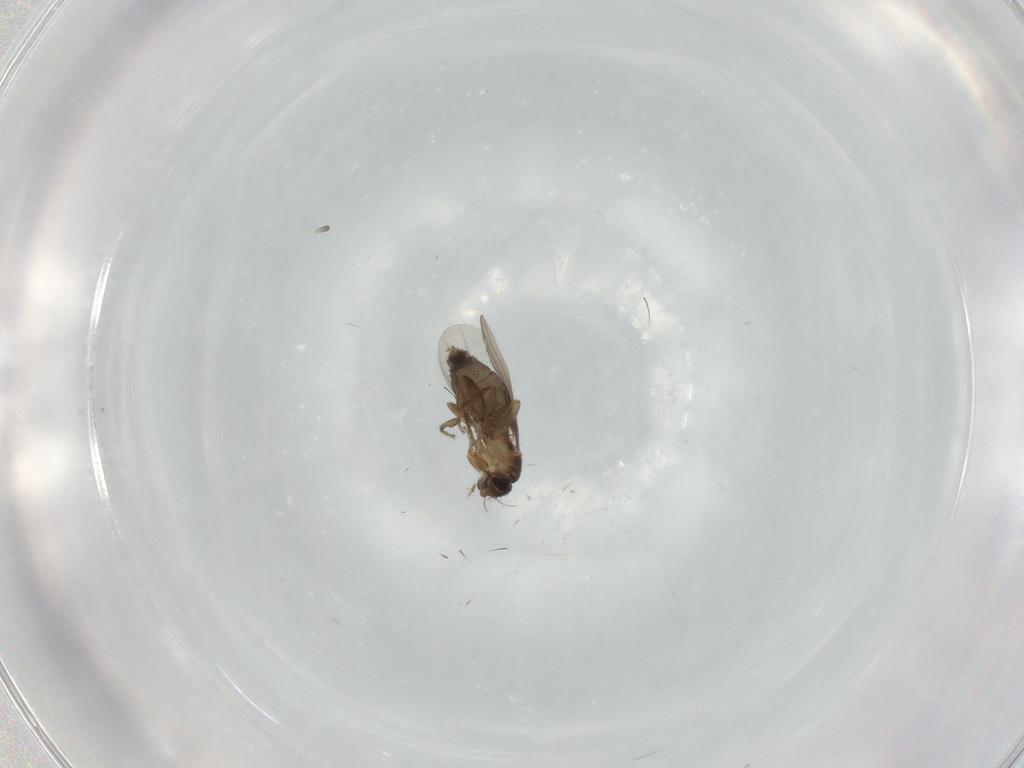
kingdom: Animalia
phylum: Arthropoda
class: Insecta
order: Diptera
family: Phoridae
